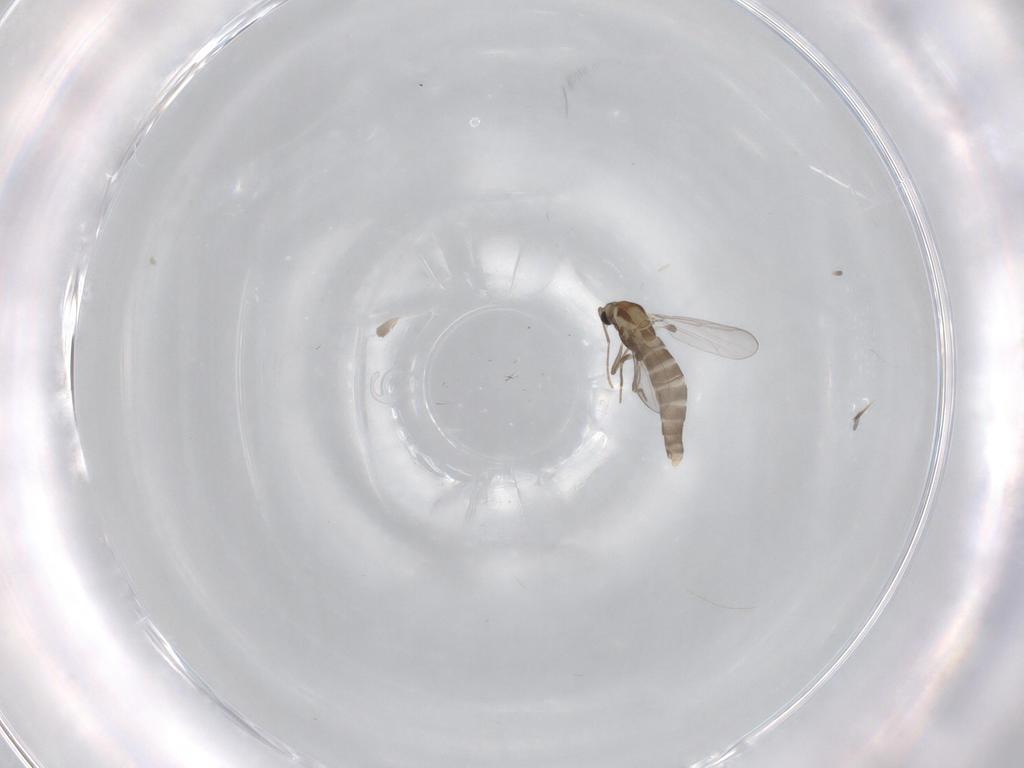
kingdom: Animalia
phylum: Arthropoda
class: Insecta
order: Diptera
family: Chironomidae
